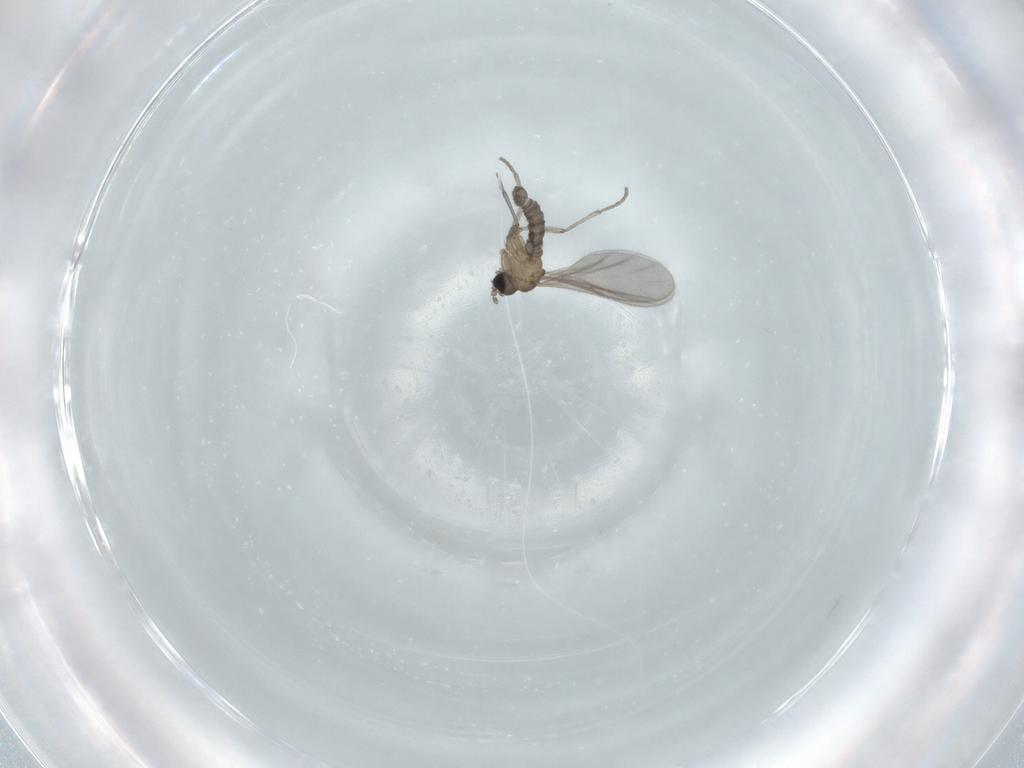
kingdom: Animalia
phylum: Arthropoda
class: Insecta
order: Diptera
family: Sciaridae
